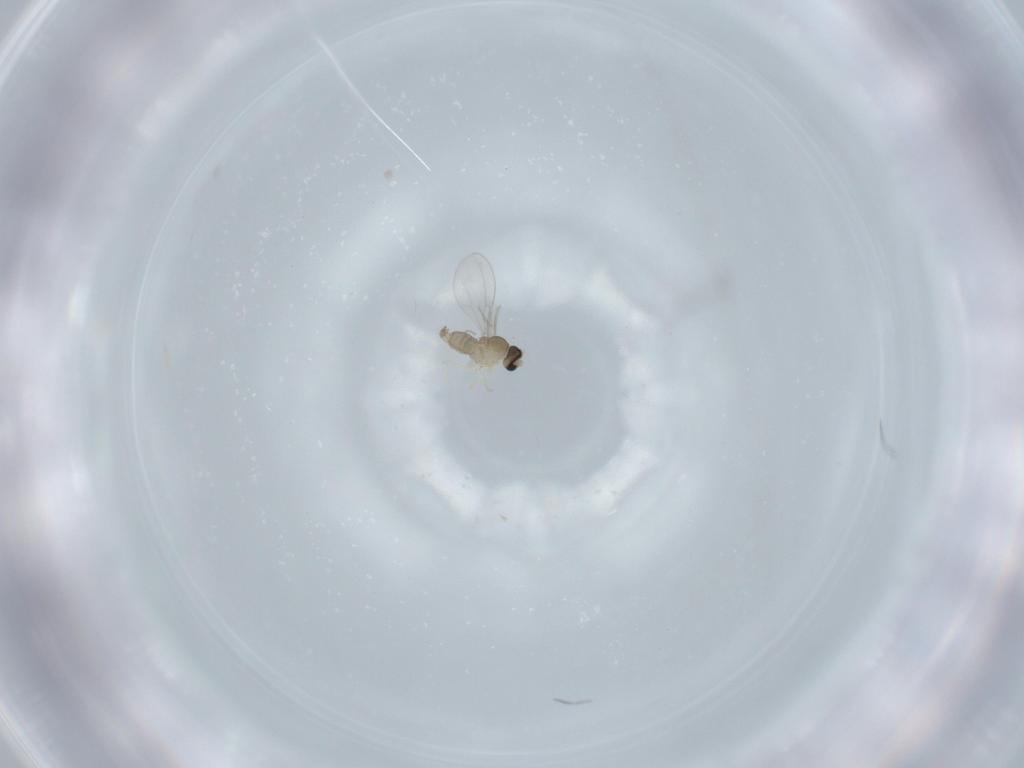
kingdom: Animalia
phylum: Arthropoda
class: Insecta
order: Diptera
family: Cecidomyiidae
